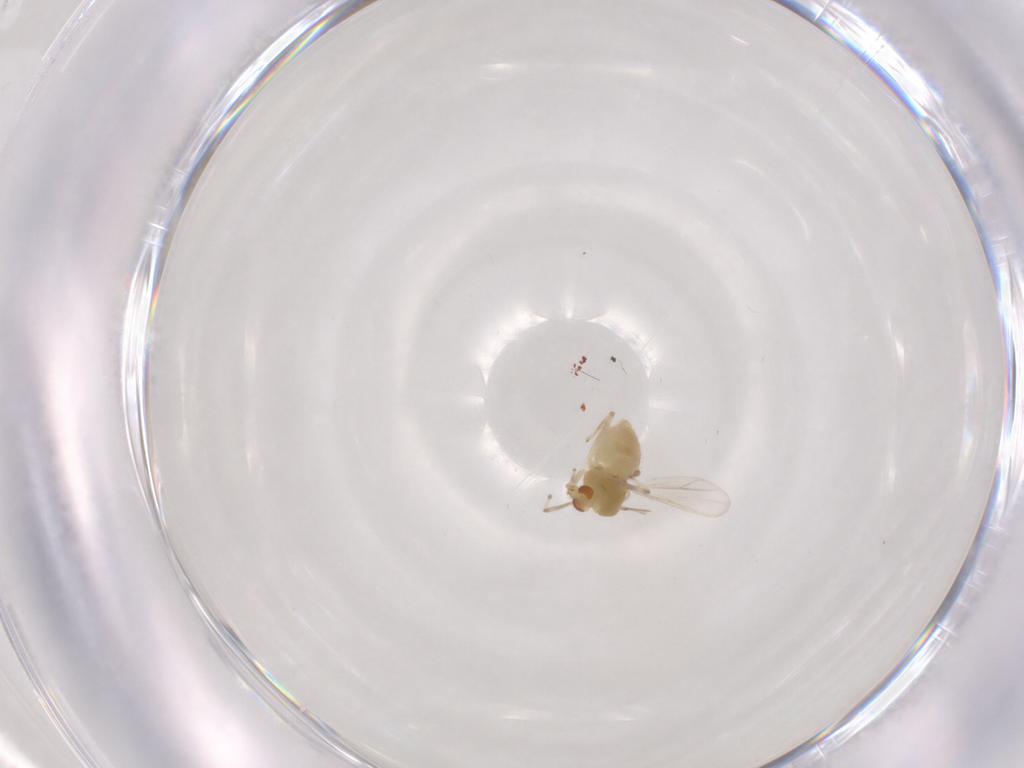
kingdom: Animalia
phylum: Arthropoda
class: Insecta
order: Diptera
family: Chironomidae
